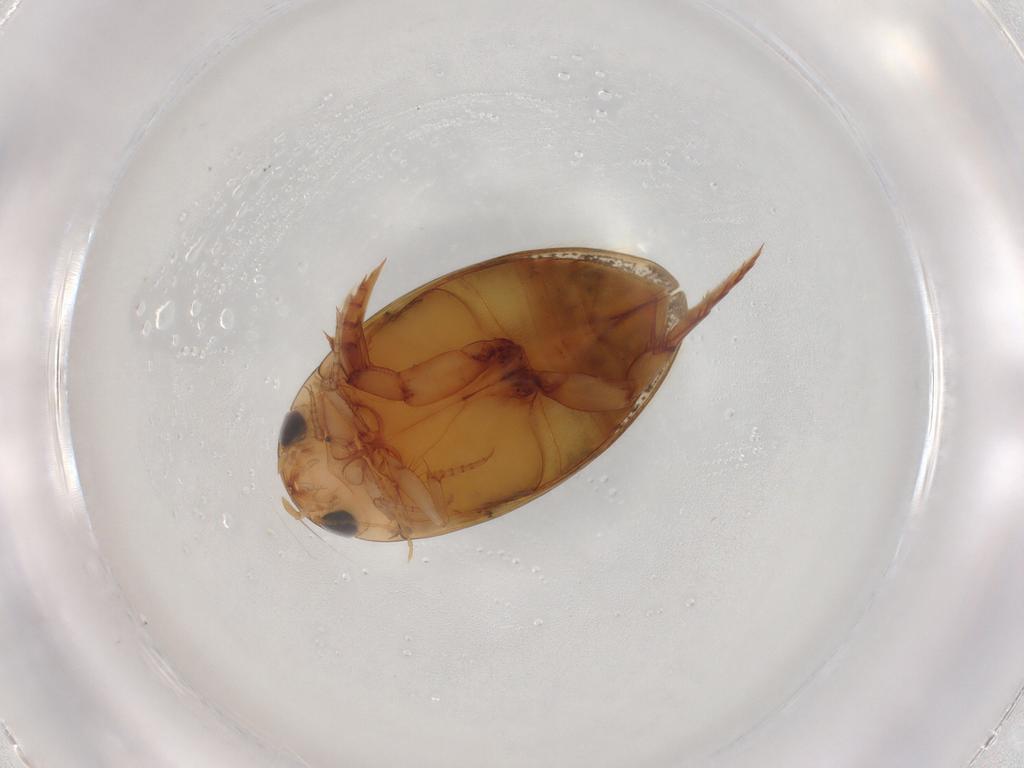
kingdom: Animalia
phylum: Arthropoda
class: Insecta
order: Coleoptera
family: Dytiscidae
